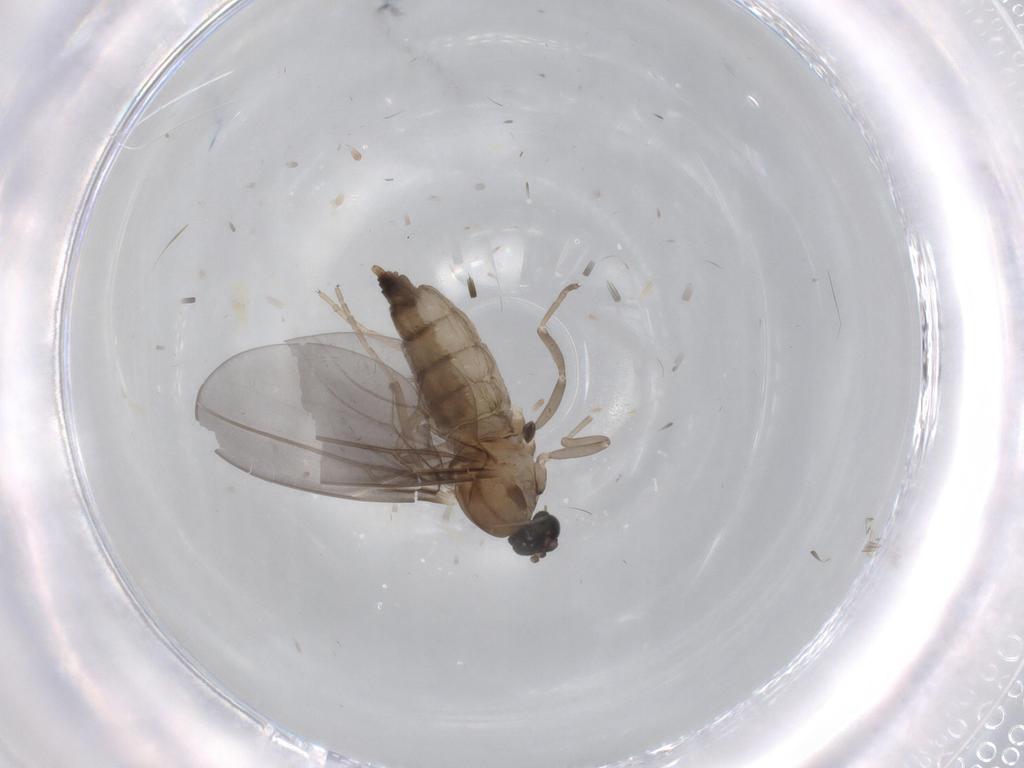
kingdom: Animalia
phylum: Arthropoda
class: Insecta
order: Diptera
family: Cecidomyiidae
